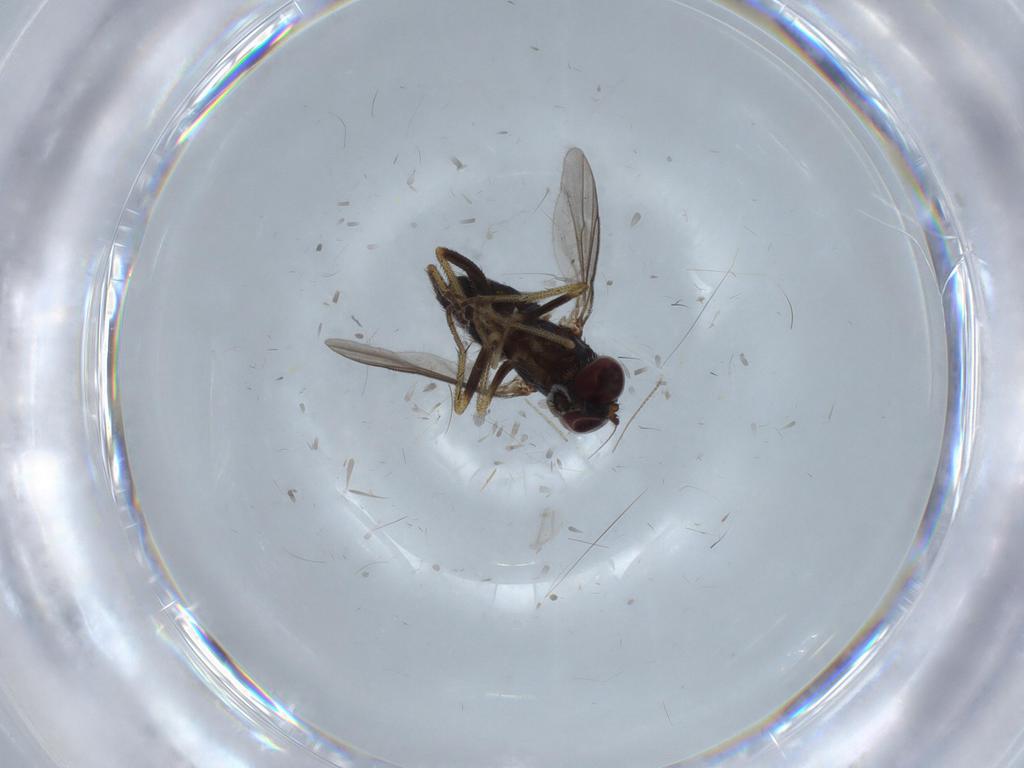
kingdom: Animalia
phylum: Arthropoda
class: Insecta
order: Diptera
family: Chironomidae
